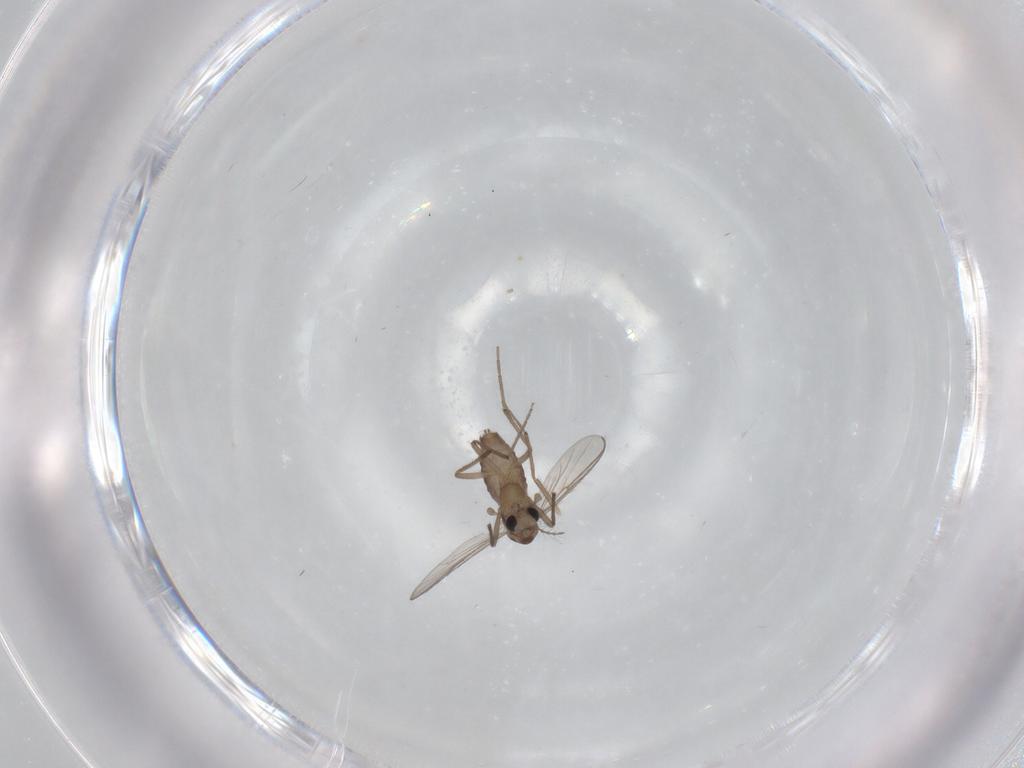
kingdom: Animalia
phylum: Arthropoda
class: Insecta
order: Diptera
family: Chironomidae
